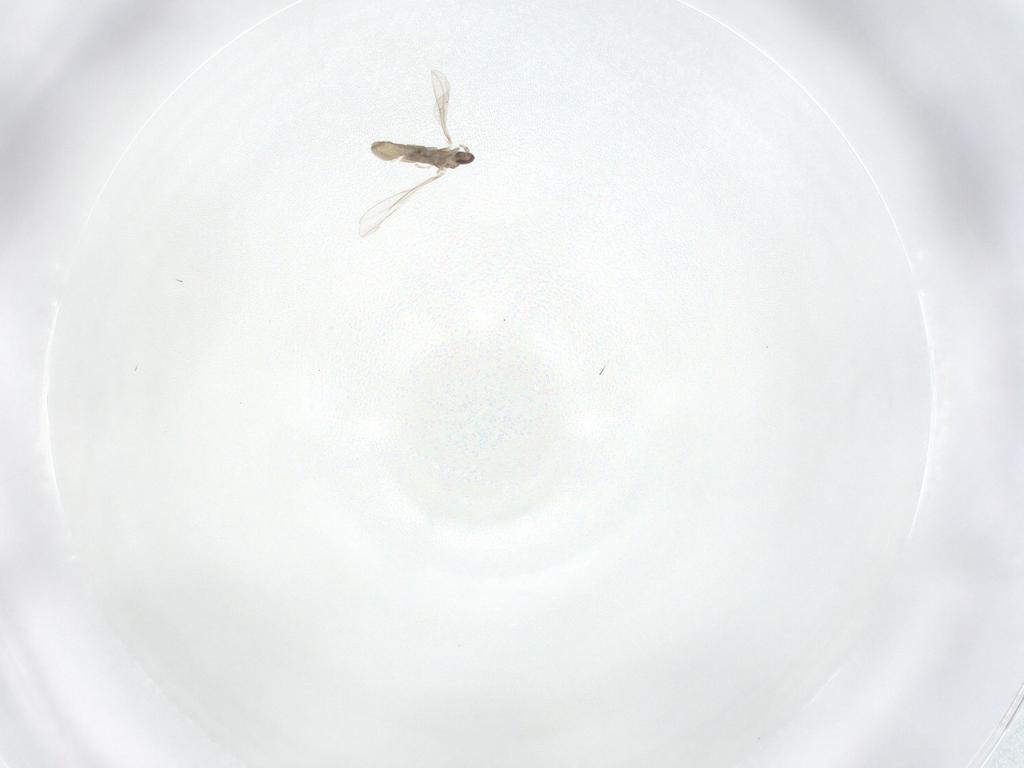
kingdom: Animalia
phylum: Arthropoda
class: Insecta
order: Diptera
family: Cecidomyiidae
